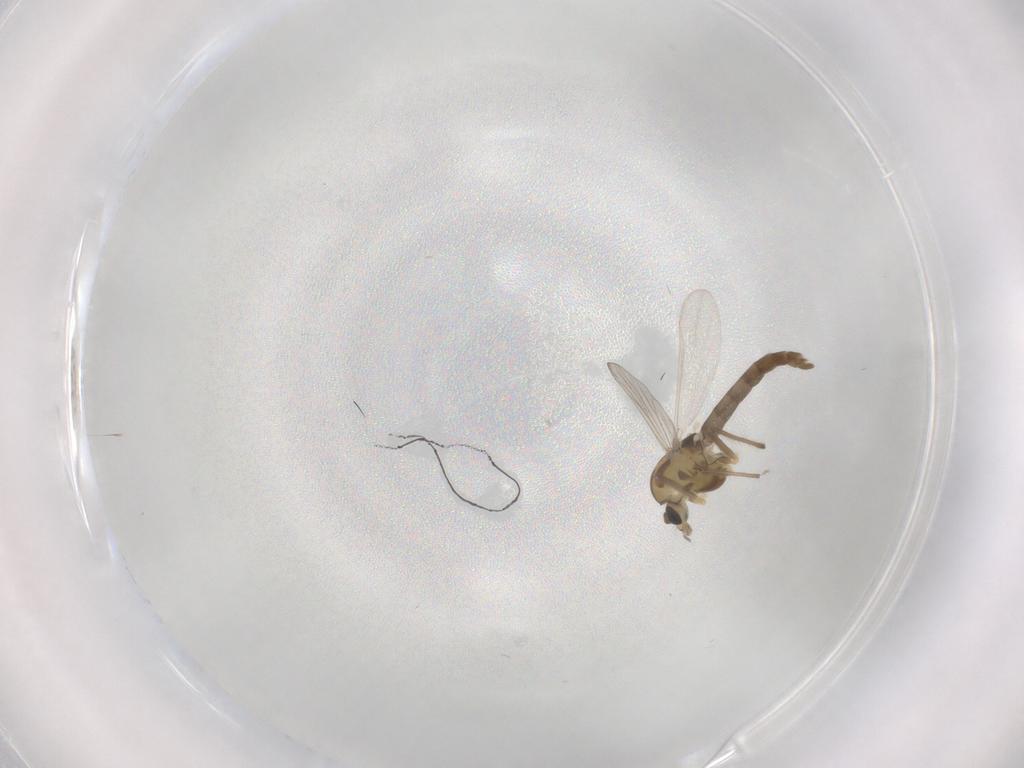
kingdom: Animalia
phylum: Arthropoda
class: Insecta
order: Diptera
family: Chironomidae
